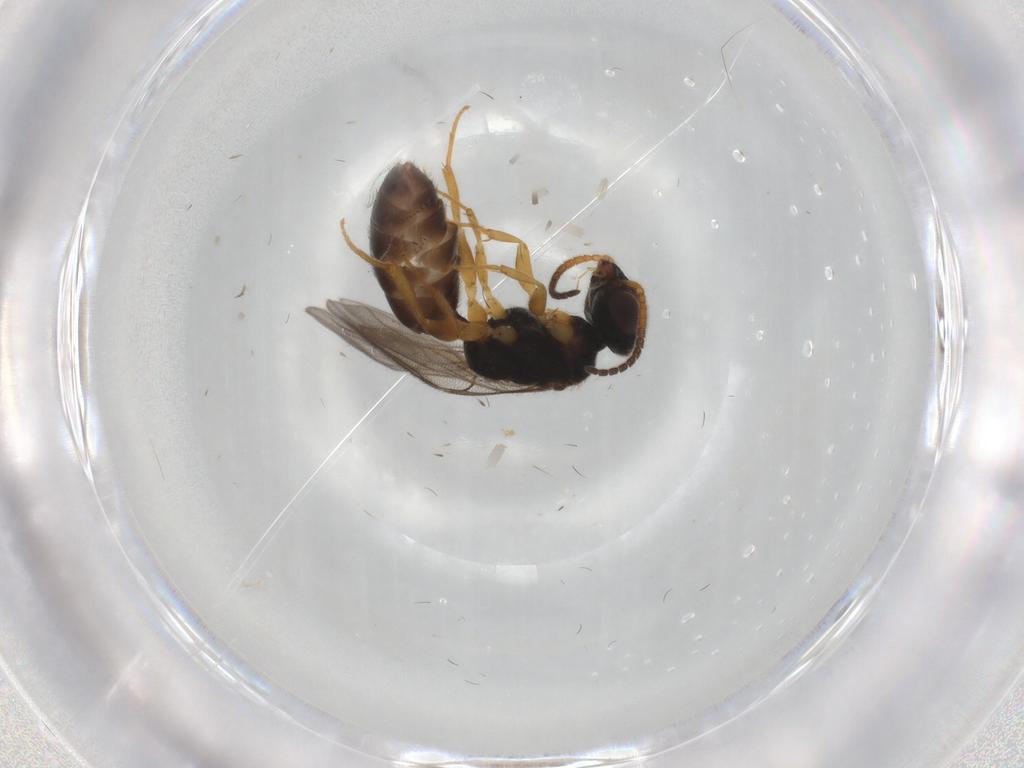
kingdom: Animalia
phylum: Arthropoda
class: Insecta
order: Hymenoptera
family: Bethylidae
